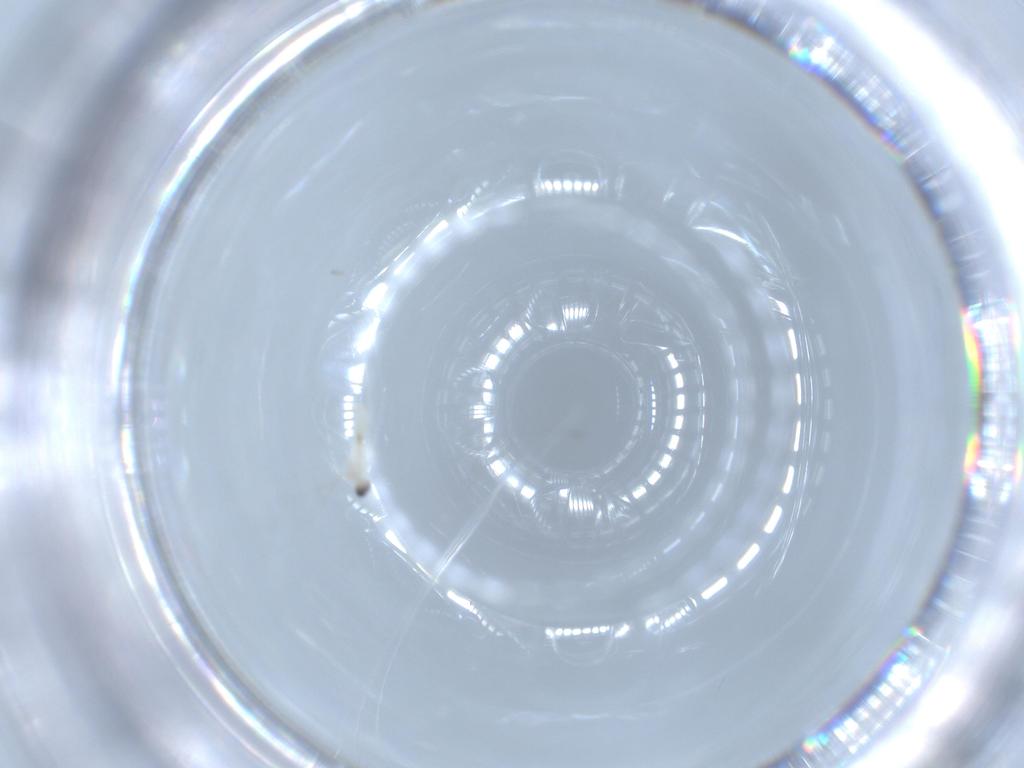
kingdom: Animalia
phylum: Arthropoda
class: Insecta
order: Diptera
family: Cecidomyiidae
